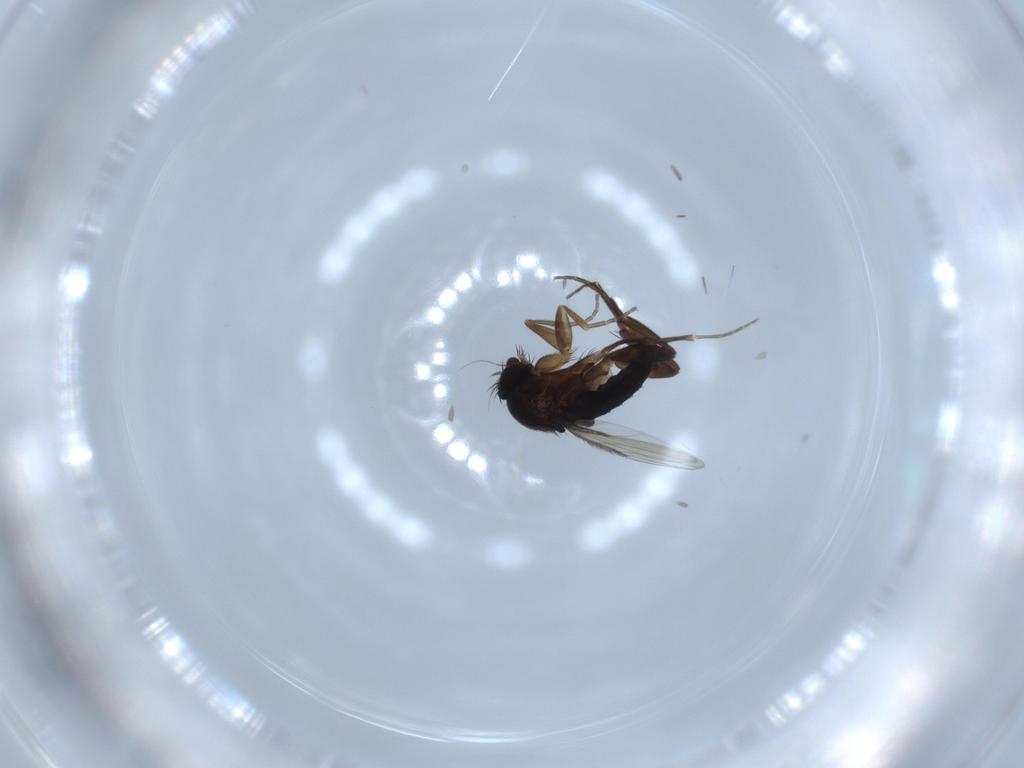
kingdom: Animalia
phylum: Arthropoda
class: Insecta
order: Diptera
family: Phoridae
